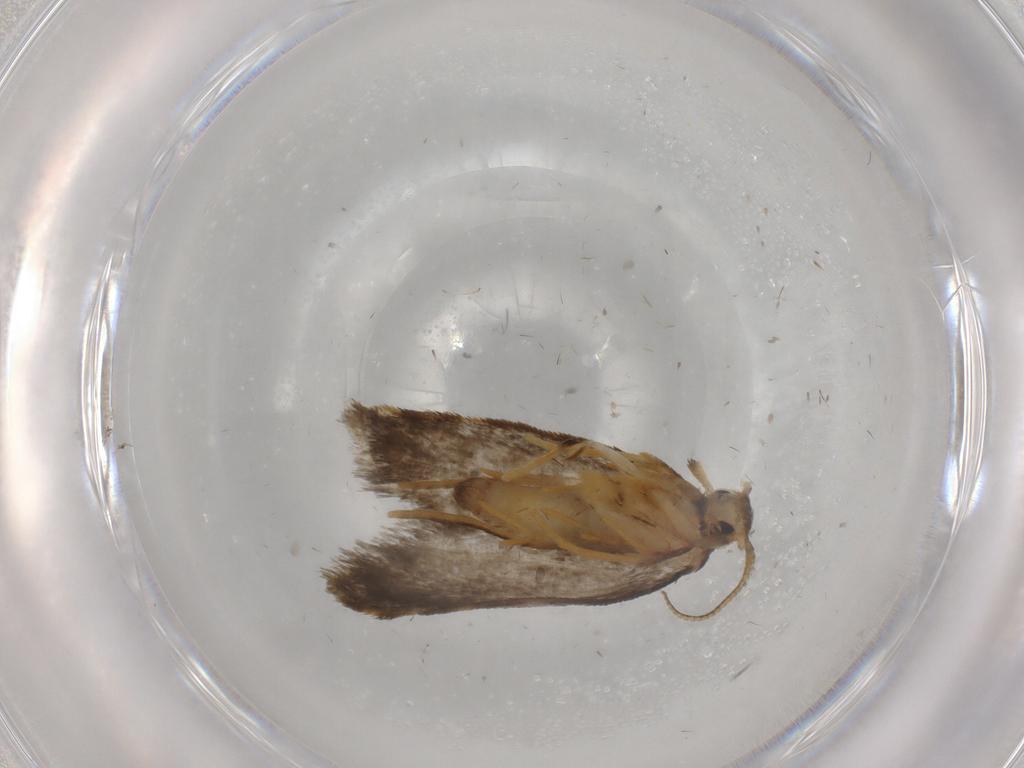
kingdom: Animalia
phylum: Arthropoda
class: Insecta
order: Lepidoptera
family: Psychidae
